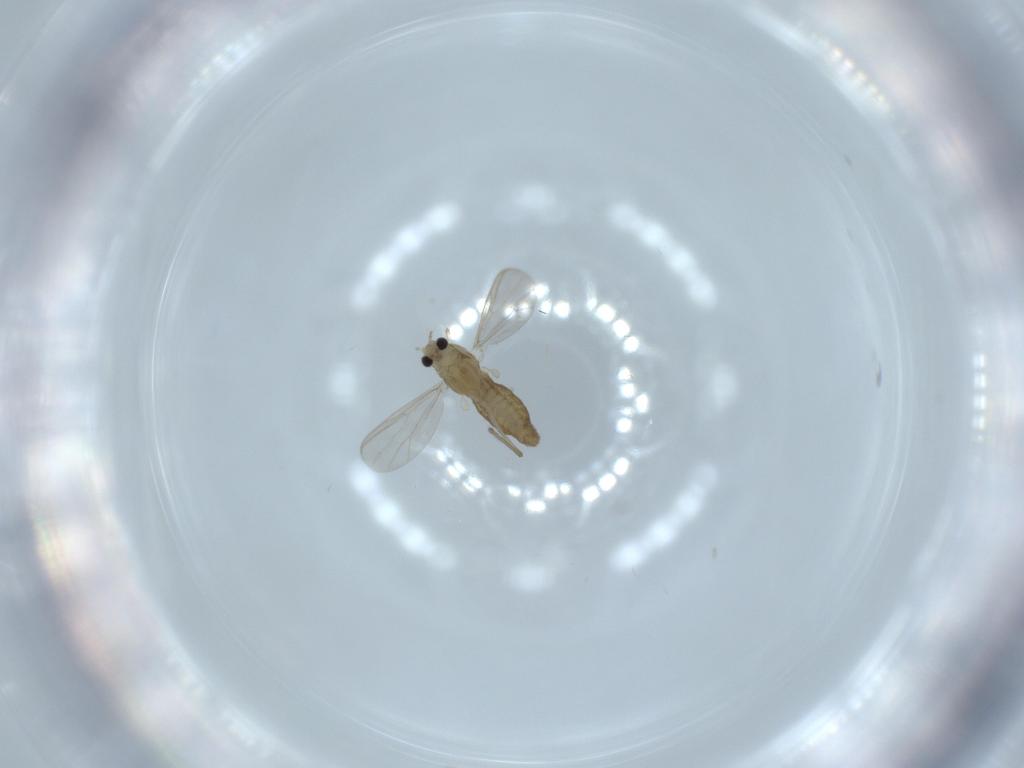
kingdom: Animalia
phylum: Arthropoda
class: Insecta
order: Diptera
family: Chironomidae
